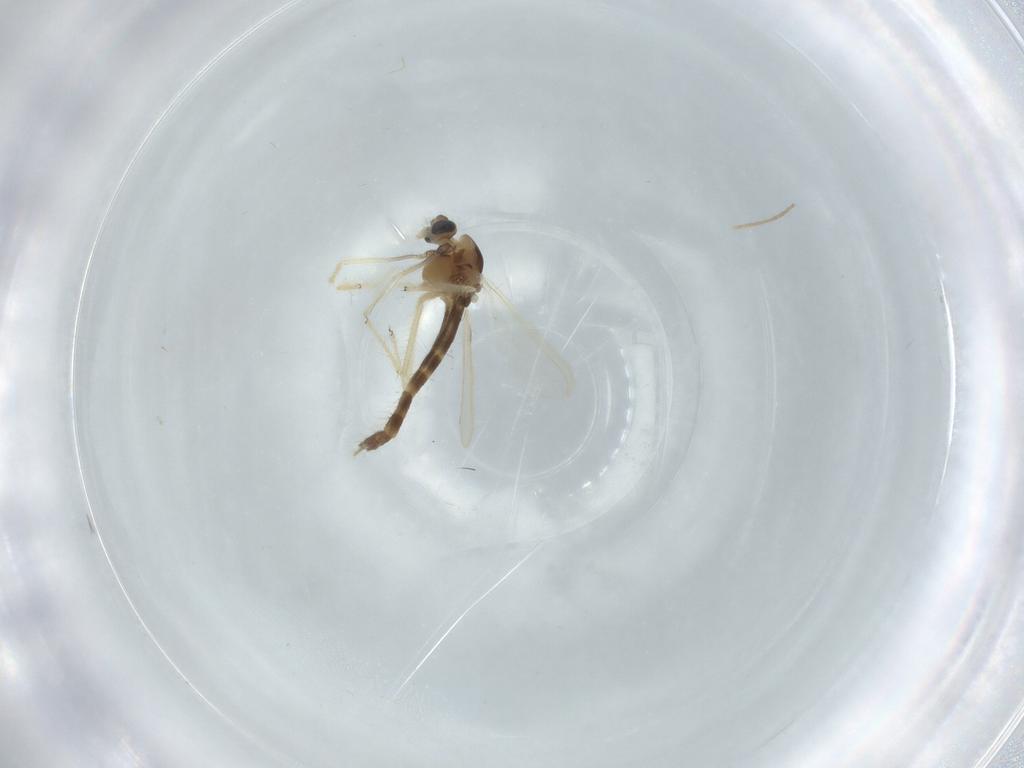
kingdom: Animalia
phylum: Arthropoda
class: Insecta
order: Diptera
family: Chironomidae
